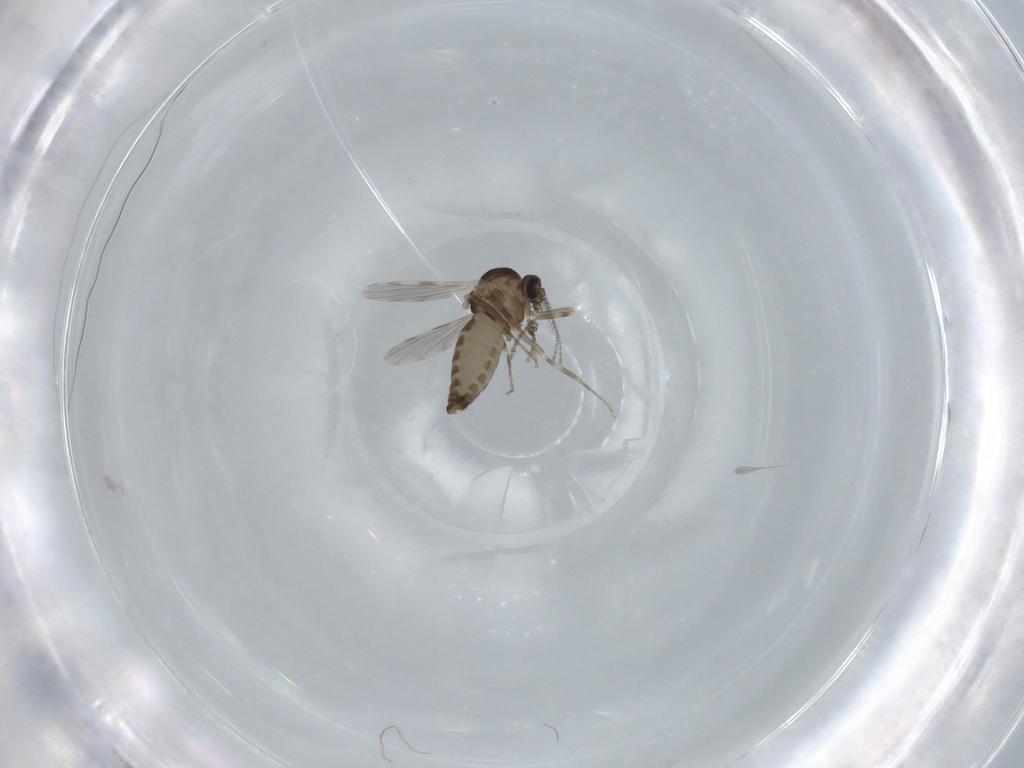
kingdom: Animalia
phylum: Arthropoda
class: Insecta
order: Diptera
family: Ceratopogonidae
